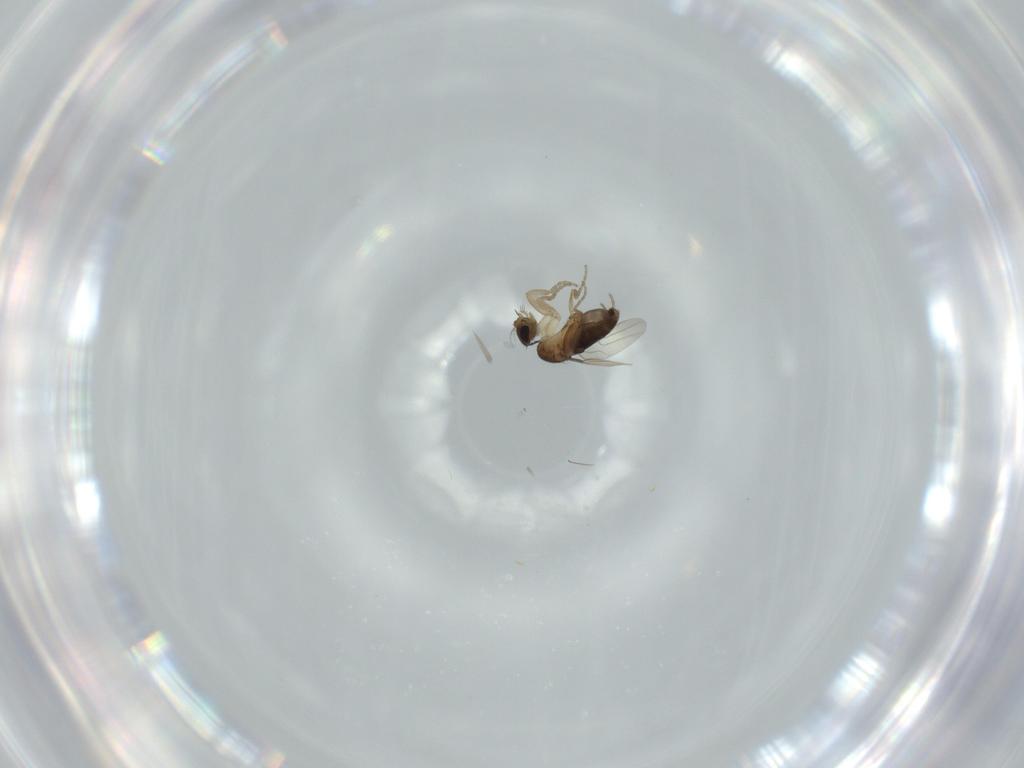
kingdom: Animalia
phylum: Arthropoda
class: Insecta
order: Diptera
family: Phoridae
